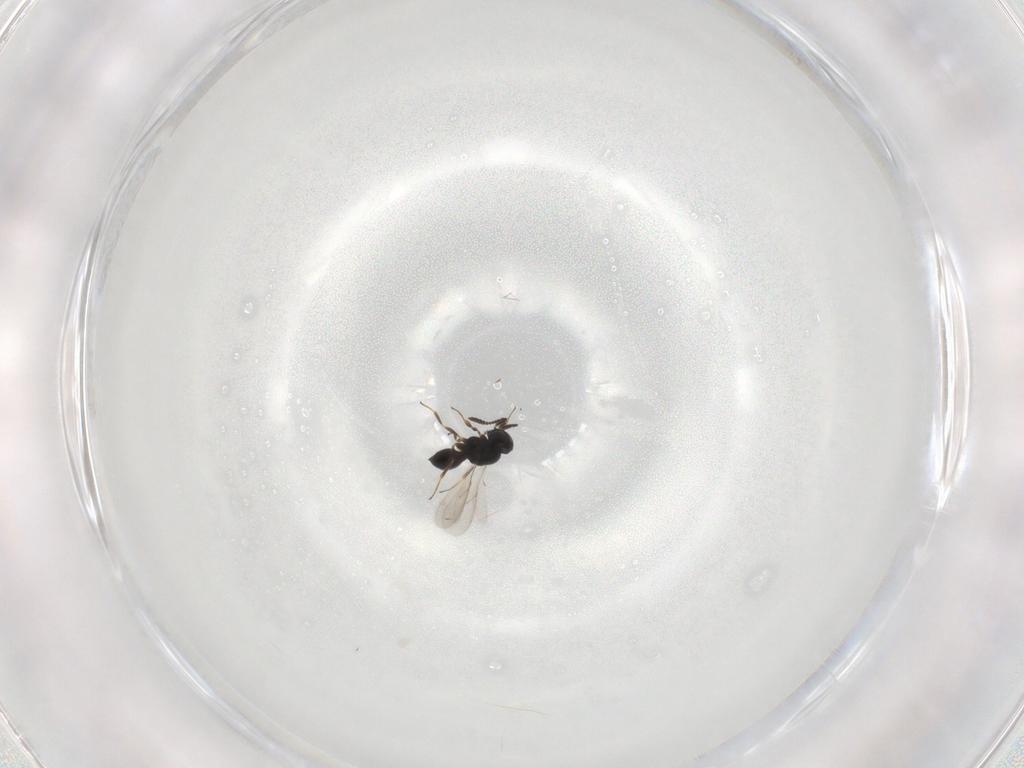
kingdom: Animalia
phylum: Arthropoda
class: Insecta
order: Hymenoptera
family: Scelionidae
